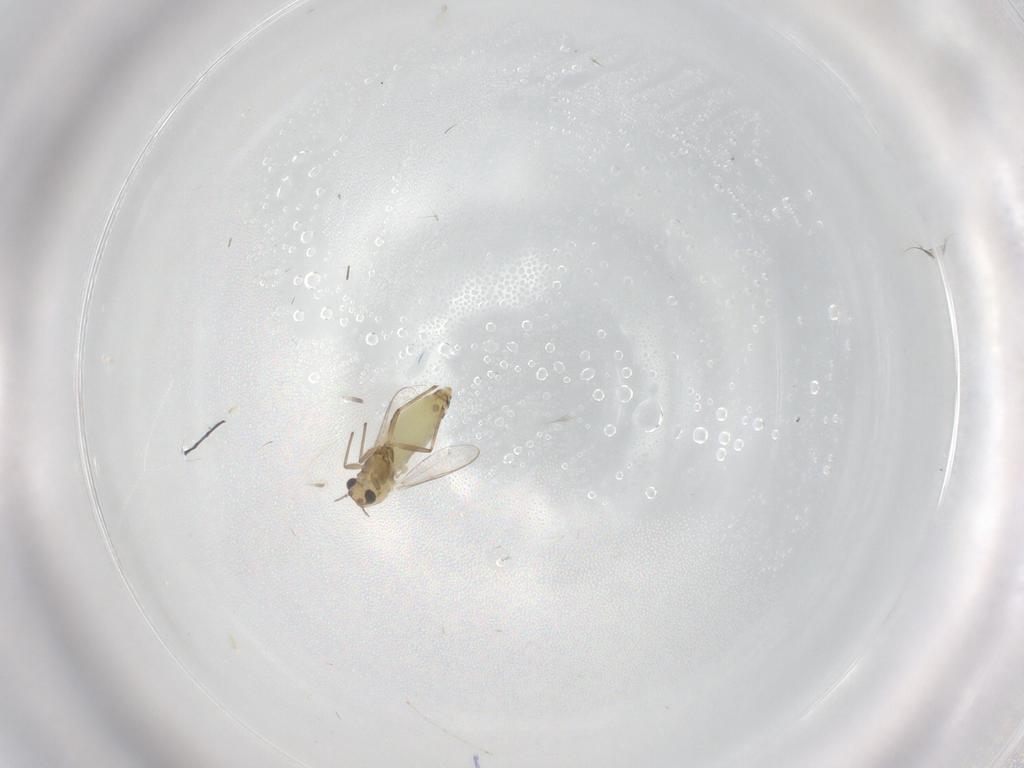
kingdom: Animalia
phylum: Arthropoda
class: Insecta
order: Diptera
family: Chironomidae
